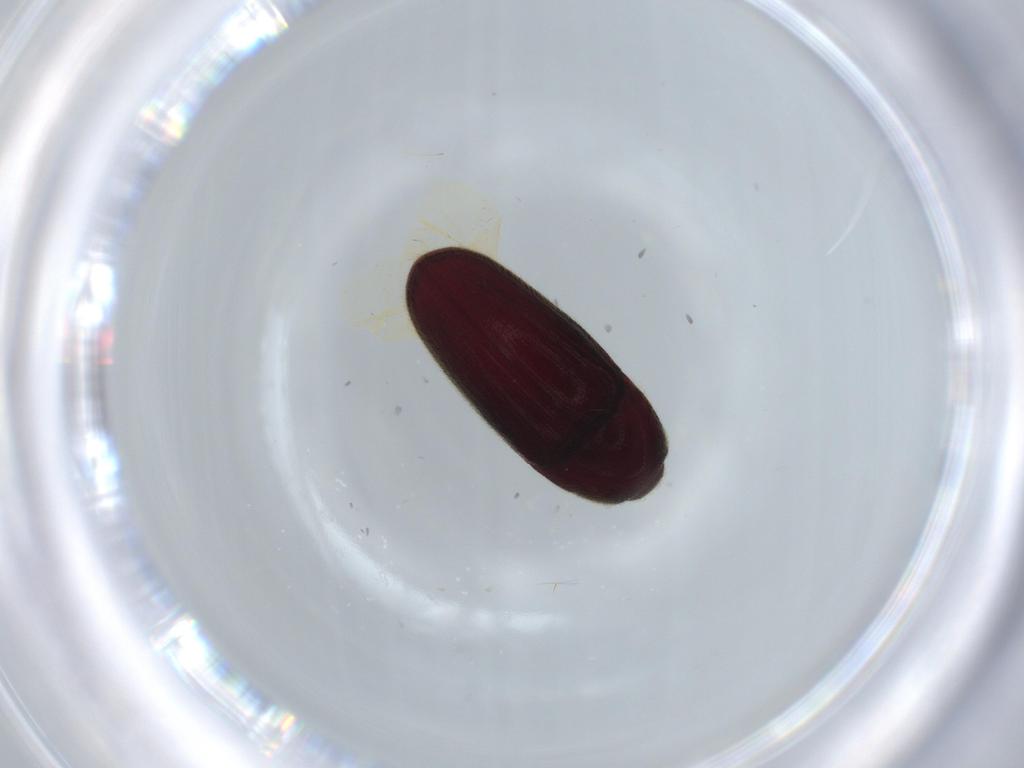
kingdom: Animalia
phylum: Arthropoda
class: Insecta
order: Coleoptera
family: Throscidae
